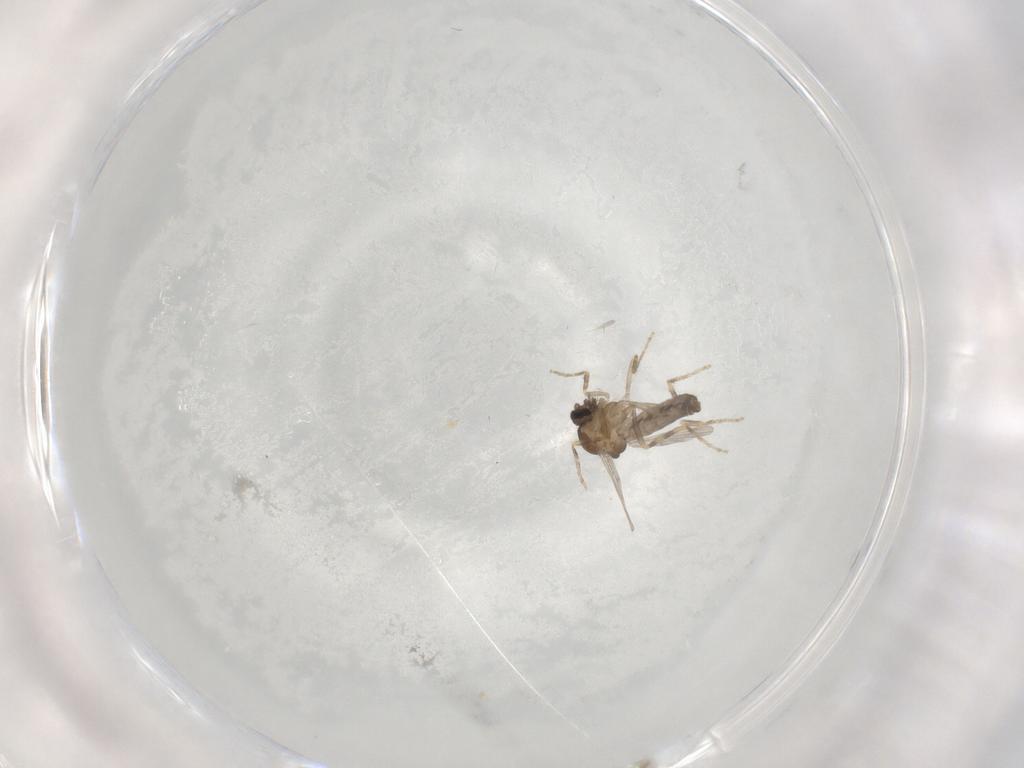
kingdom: Animalia
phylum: Arthropoda
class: Insecta
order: Diptera
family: Ceratopogonidae
